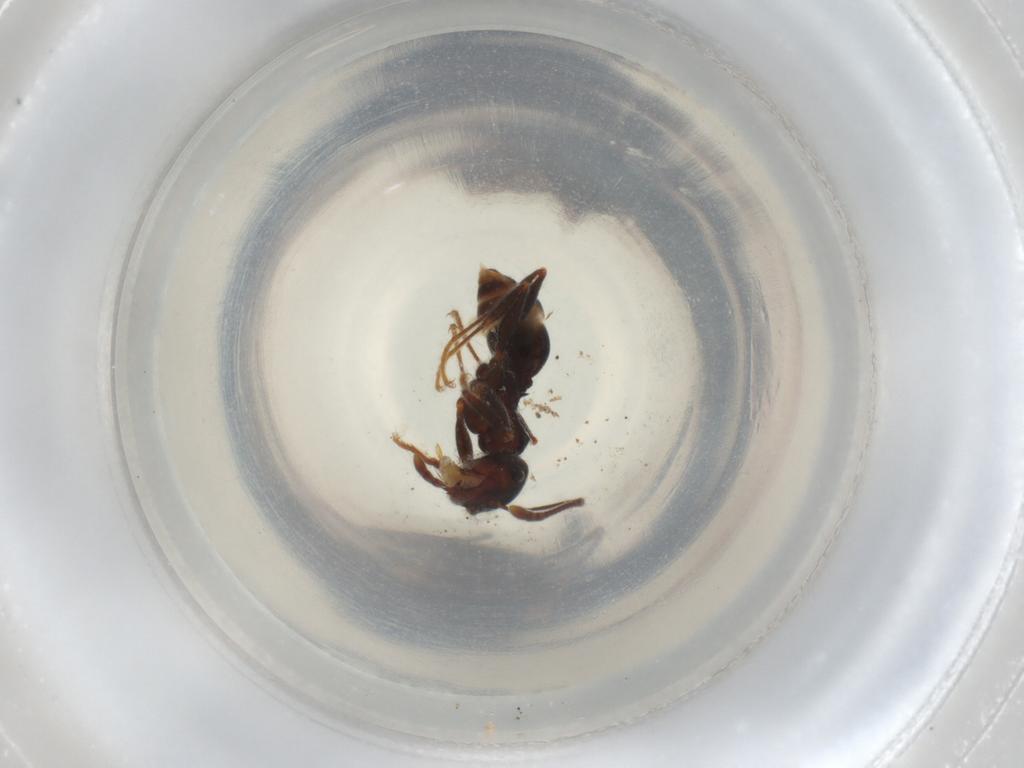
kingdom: Animalia
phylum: Arthropoda
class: Insecta
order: Hymenoptera
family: Formicidae
